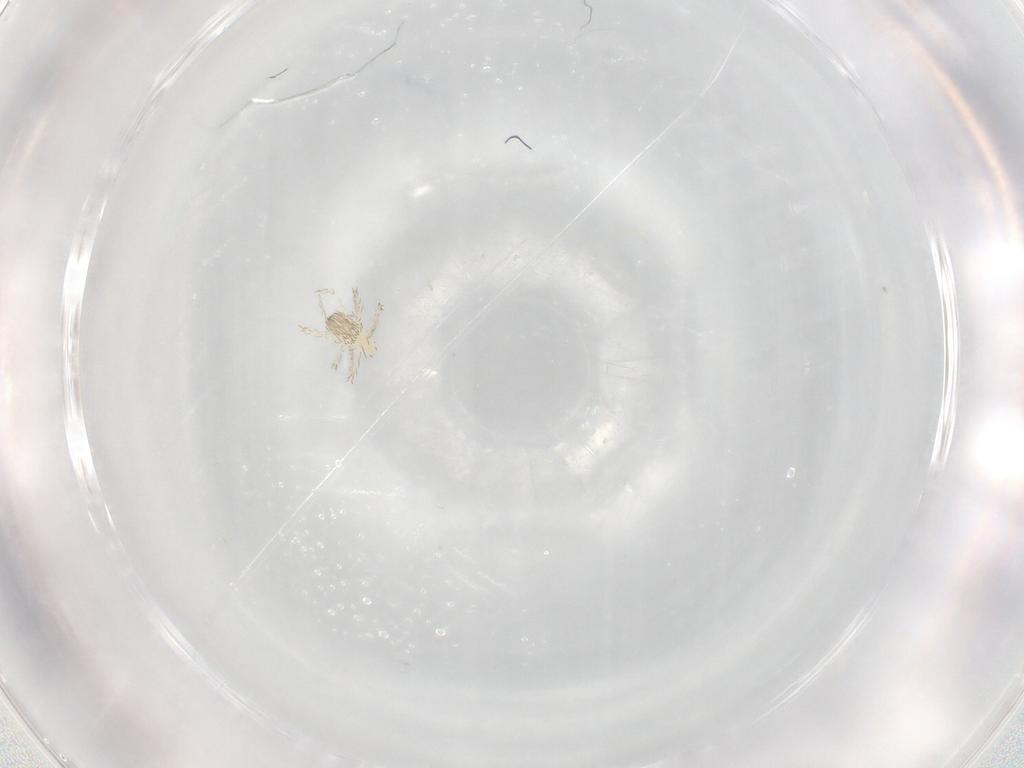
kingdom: Animalia
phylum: Arthropoda
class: Arachnida
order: Trombidiformes
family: Erythraeidae
